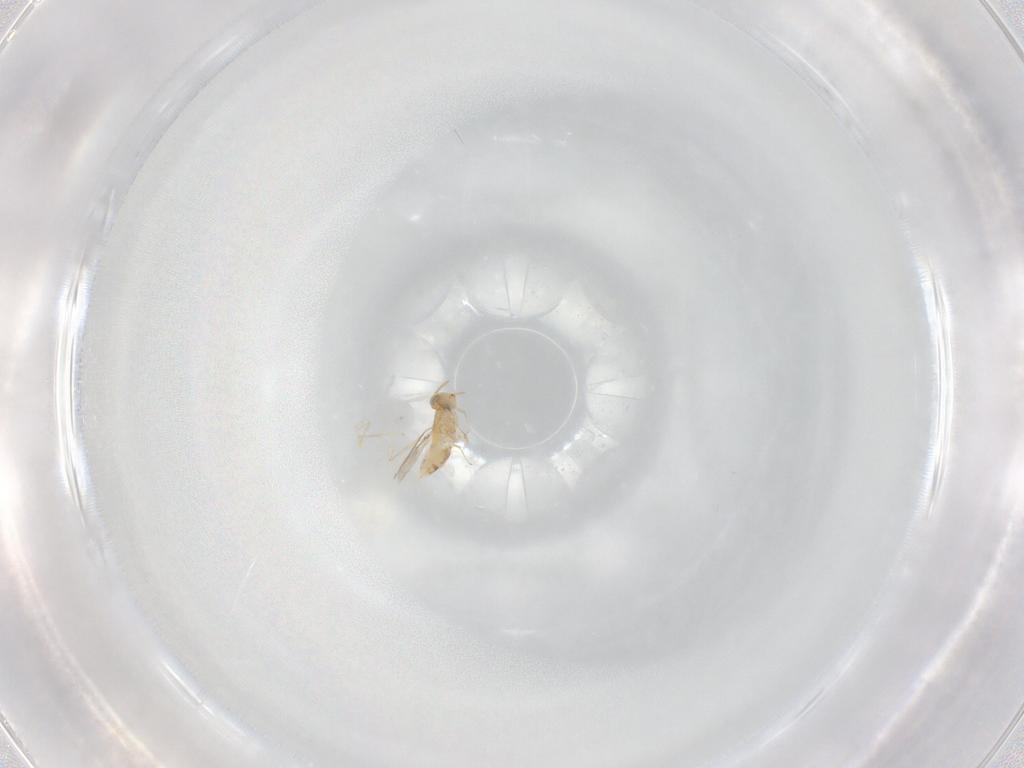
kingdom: Animalia
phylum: Arthropoda
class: Insecta
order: Hymenoptera
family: Aphelinidae
